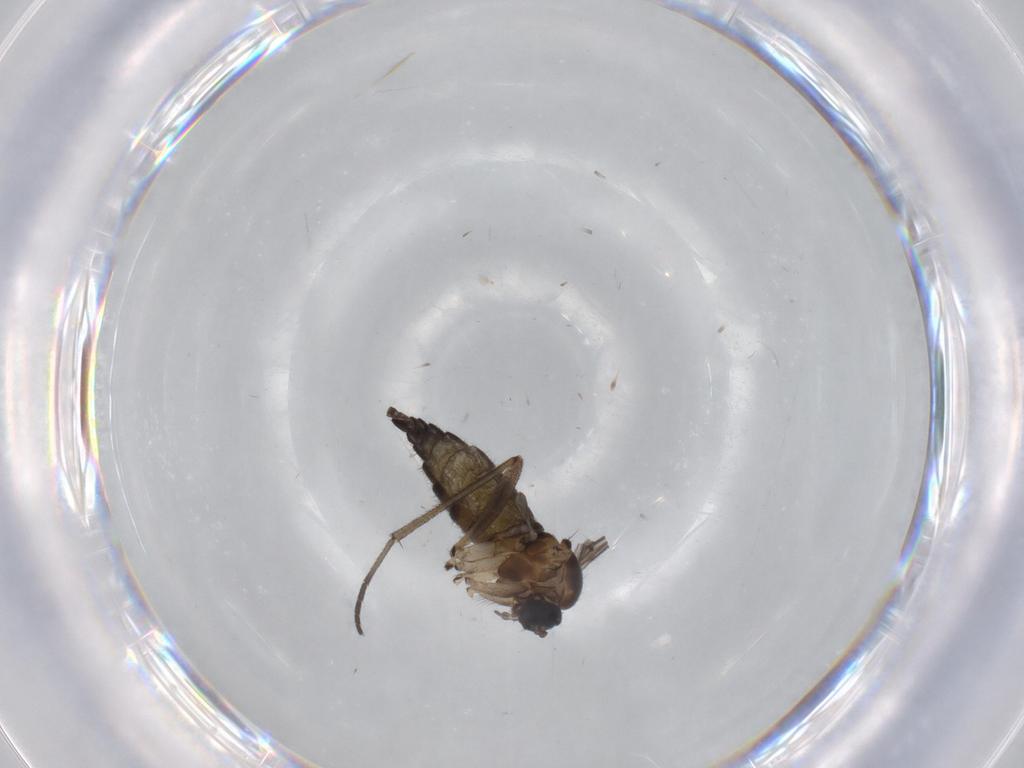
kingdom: Animalia
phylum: Arthropoda
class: Insecta
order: Diptera
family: Sciaridae
